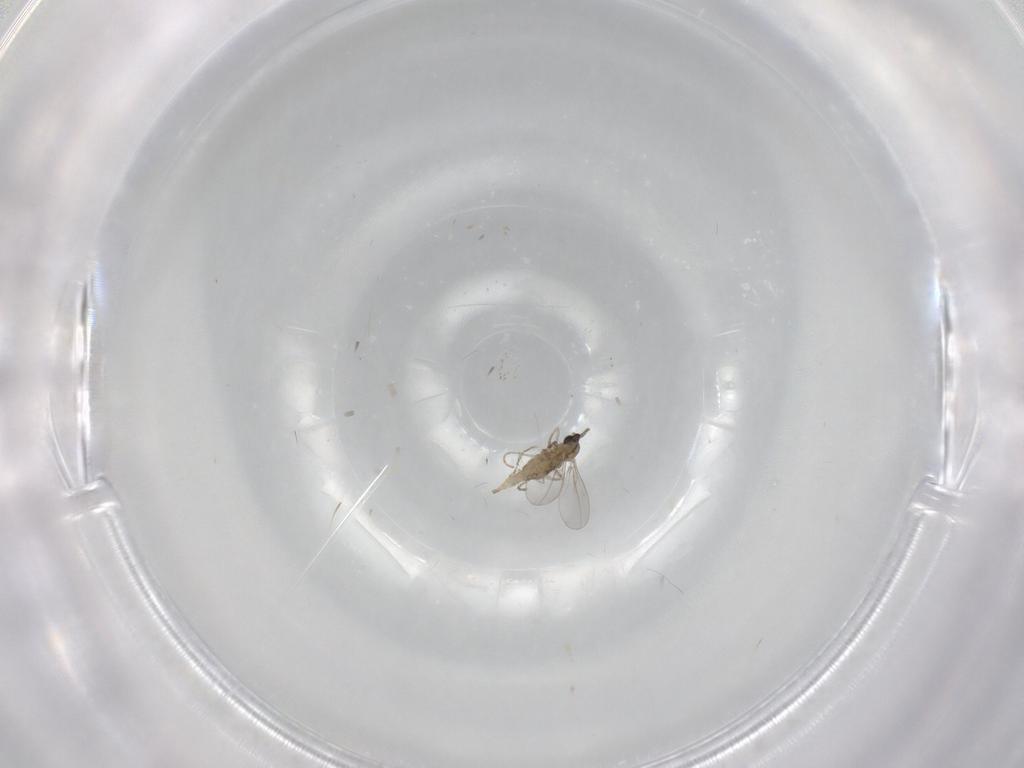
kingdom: Animalia
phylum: Arthropoda
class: Insecta
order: Diptera
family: Cecidomyiidae
